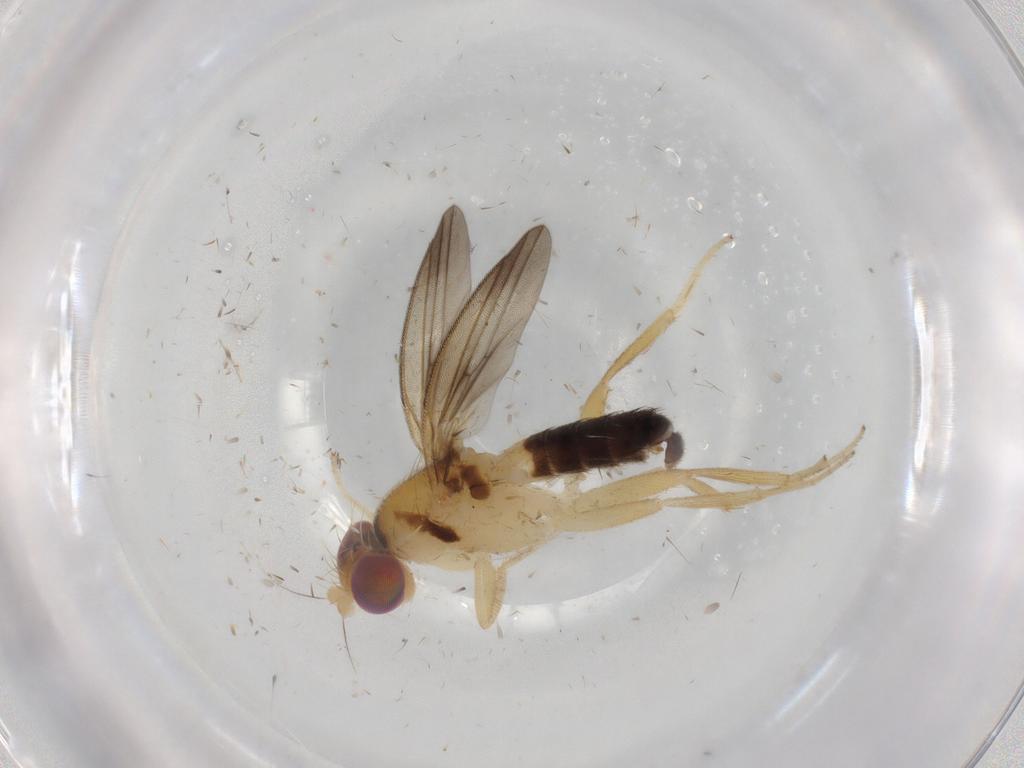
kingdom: Animalia
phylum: Arthropoda
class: Insecta
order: Diptera
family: Clusiidae
